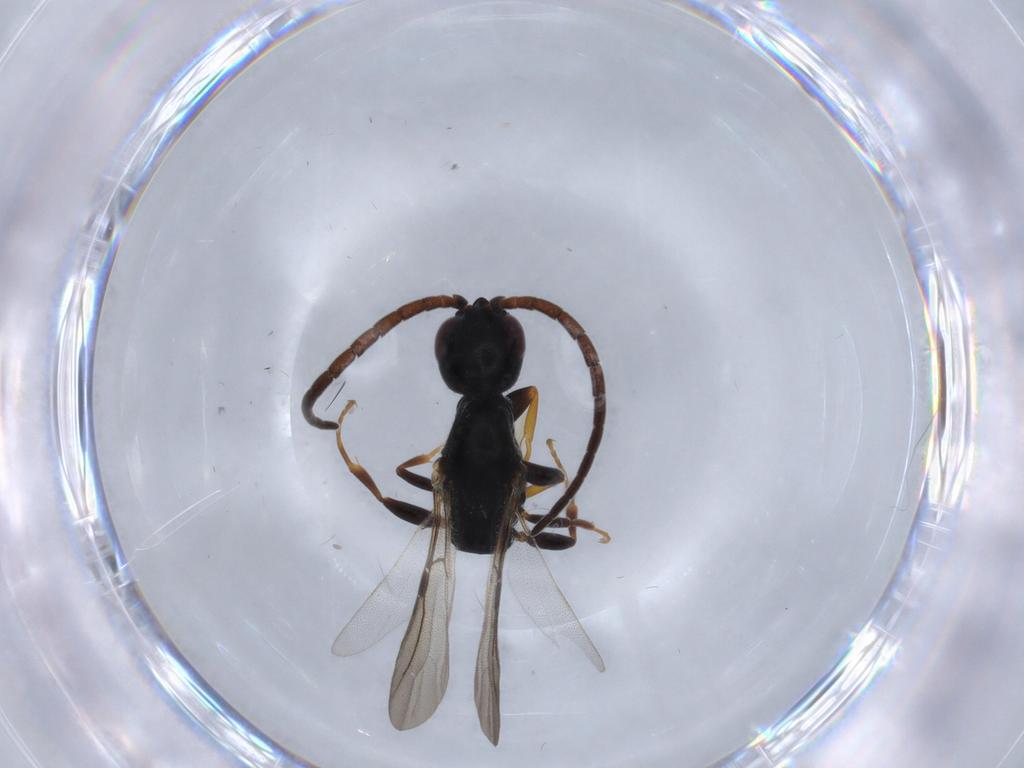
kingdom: Animalia
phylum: Arthropoda
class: Insecta
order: Hymenoptera
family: Bethylidae
